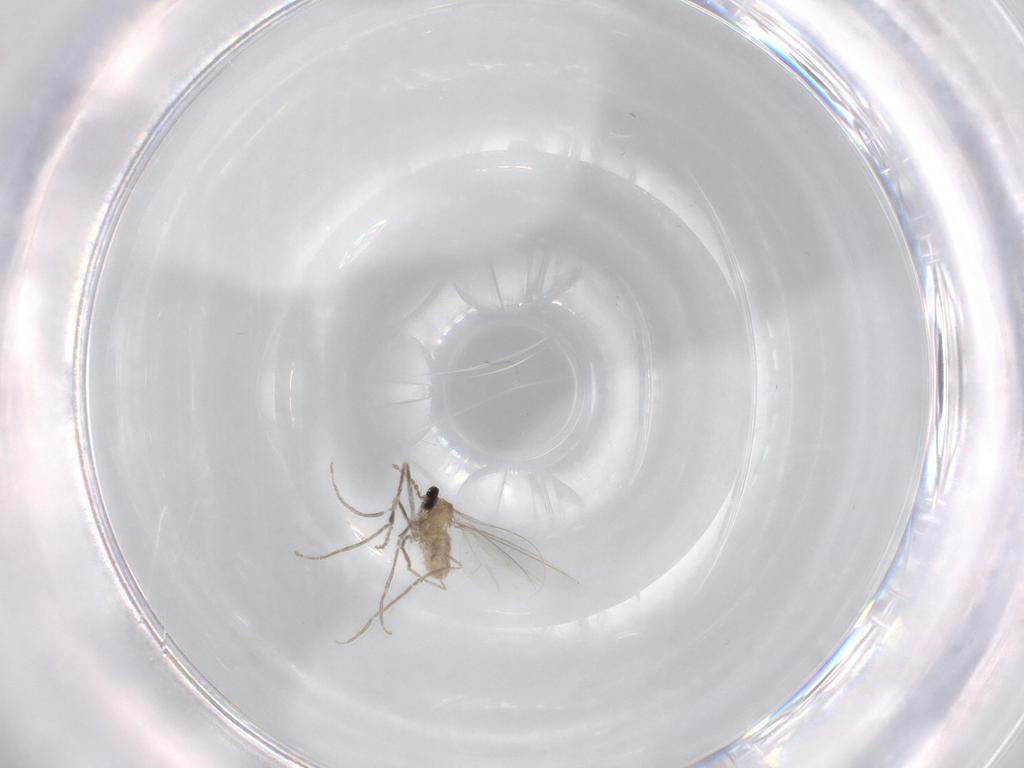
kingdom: Animalia
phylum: Arthropoda
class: Insecta
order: Diptera
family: Cecidomyiidae
